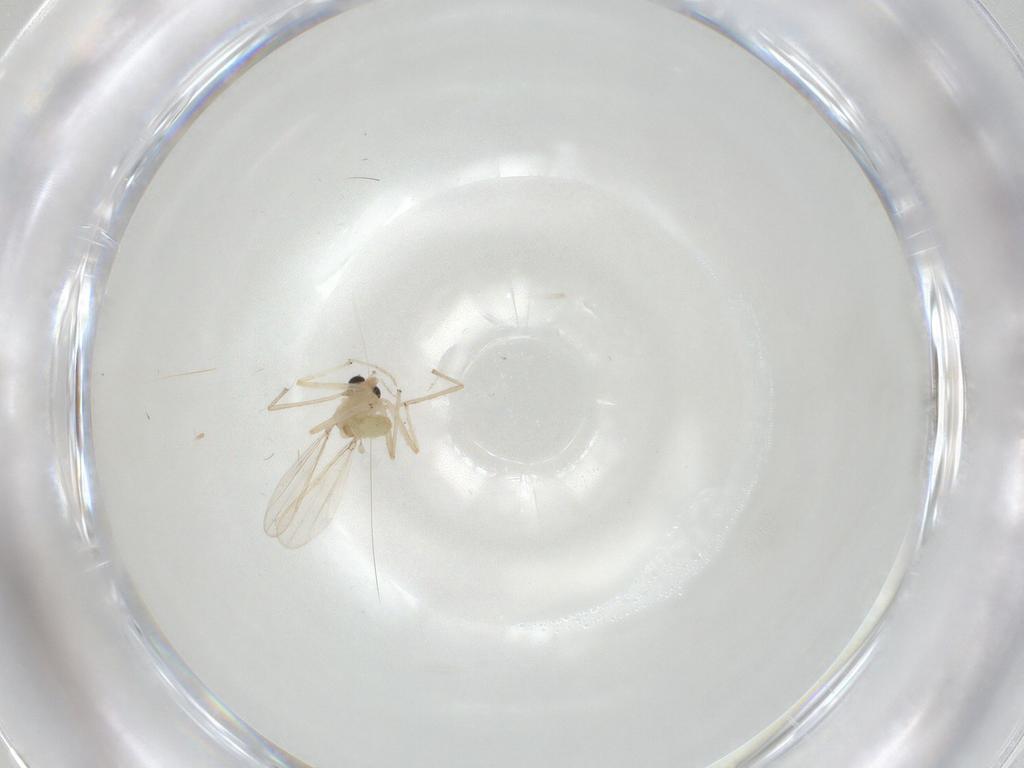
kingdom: Animalia
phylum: Arthropoda
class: Insecta
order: Diptera
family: Chironomidae
